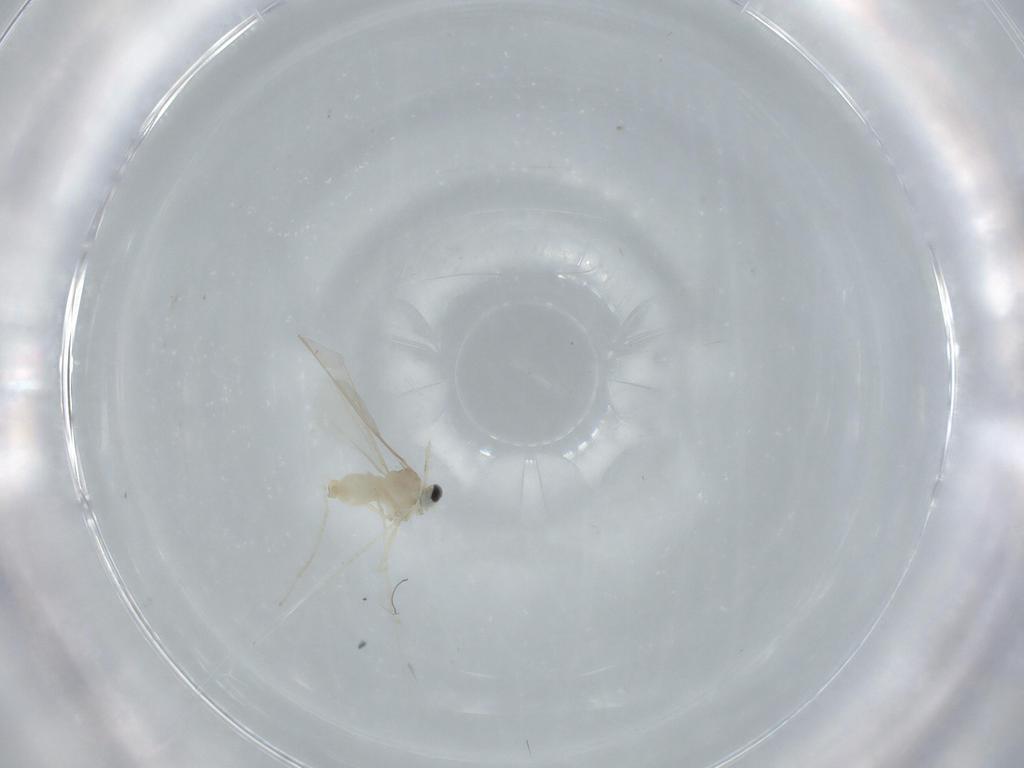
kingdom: Animalia
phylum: Arthropoda
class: Insecta
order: Diptera
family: Cecidomyiidae
